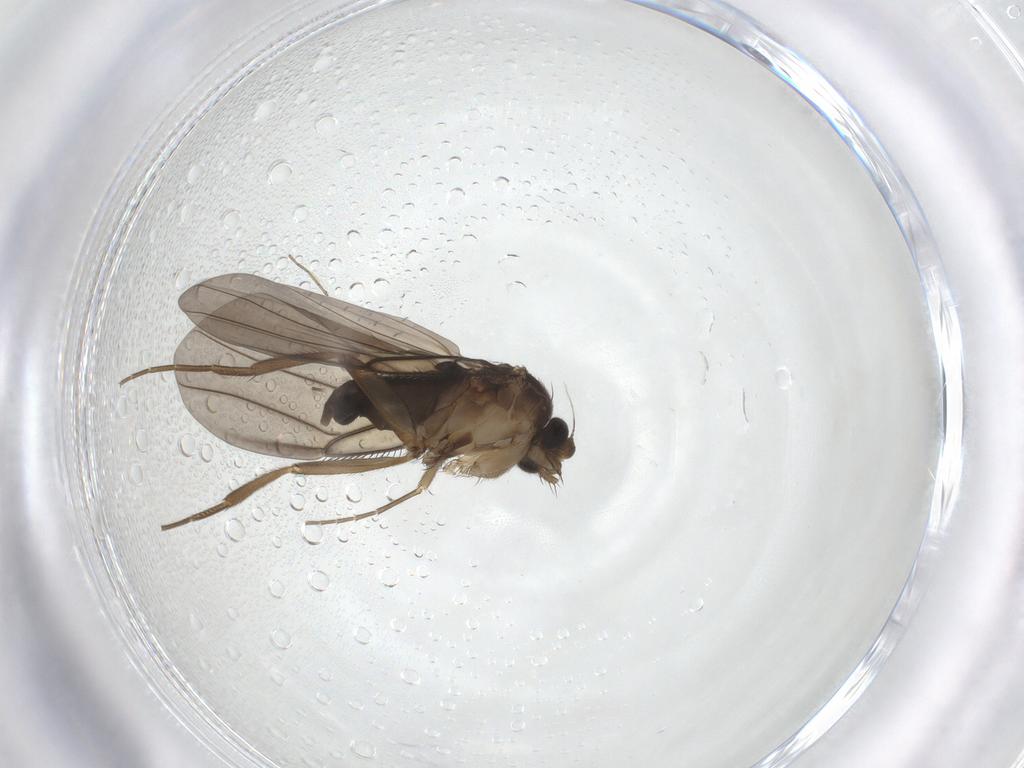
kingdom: Animalia
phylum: Arthropoda
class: Insecta
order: Diptera
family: Phoridae
